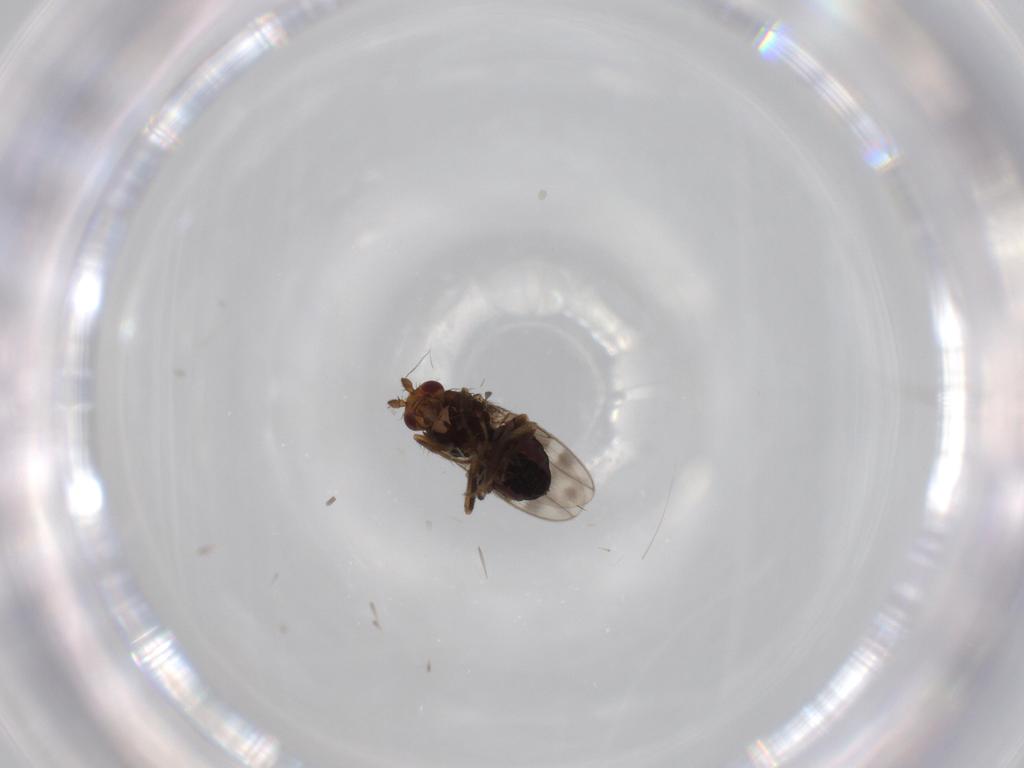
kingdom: Animalia
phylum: Arthropoda
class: Insecta
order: Diptera
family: Sphaeroceridae
